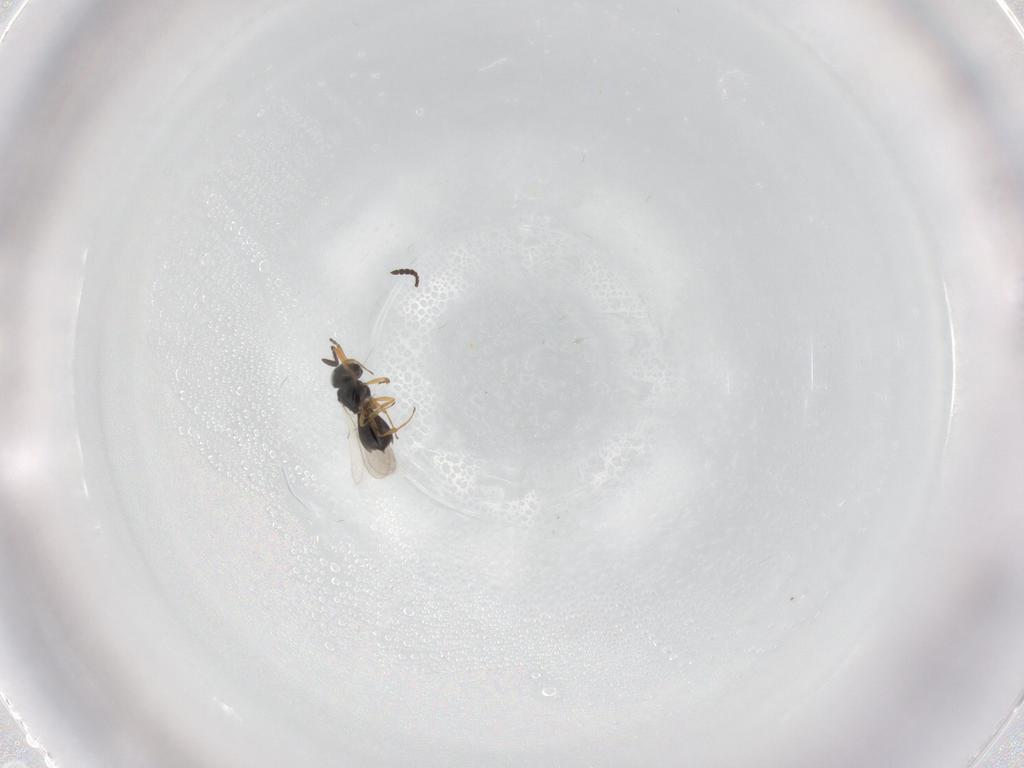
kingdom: Animalia
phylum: Arthropoda
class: Insecta
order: Hymenoptera
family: Scelionidae
